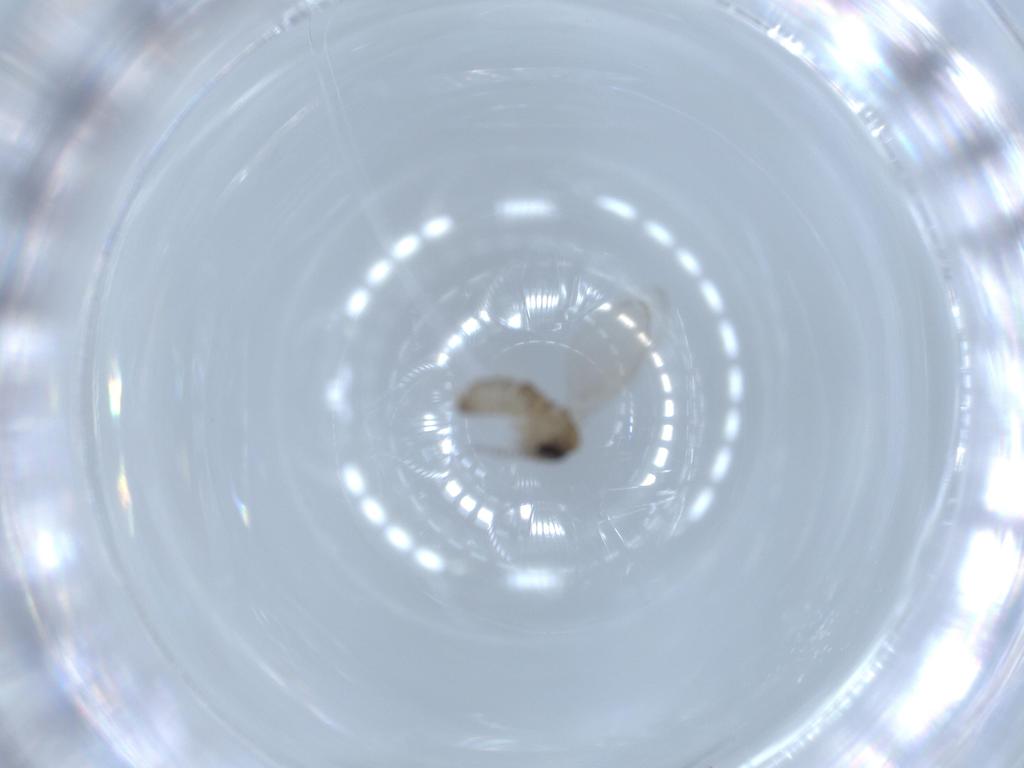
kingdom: Animalia
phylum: Arthropoda
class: Insecta
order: Diptera
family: Psychodidae
